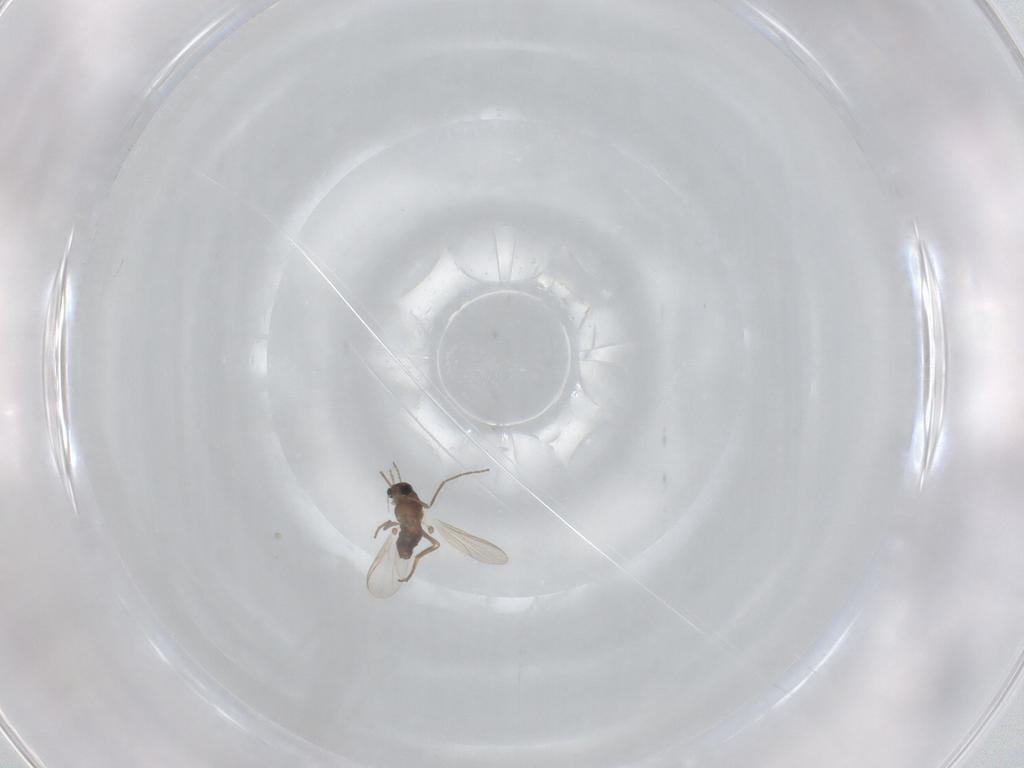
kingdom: Animalia
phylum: Arthropoda
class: Insecta
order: Diptera
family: Chironomidae
